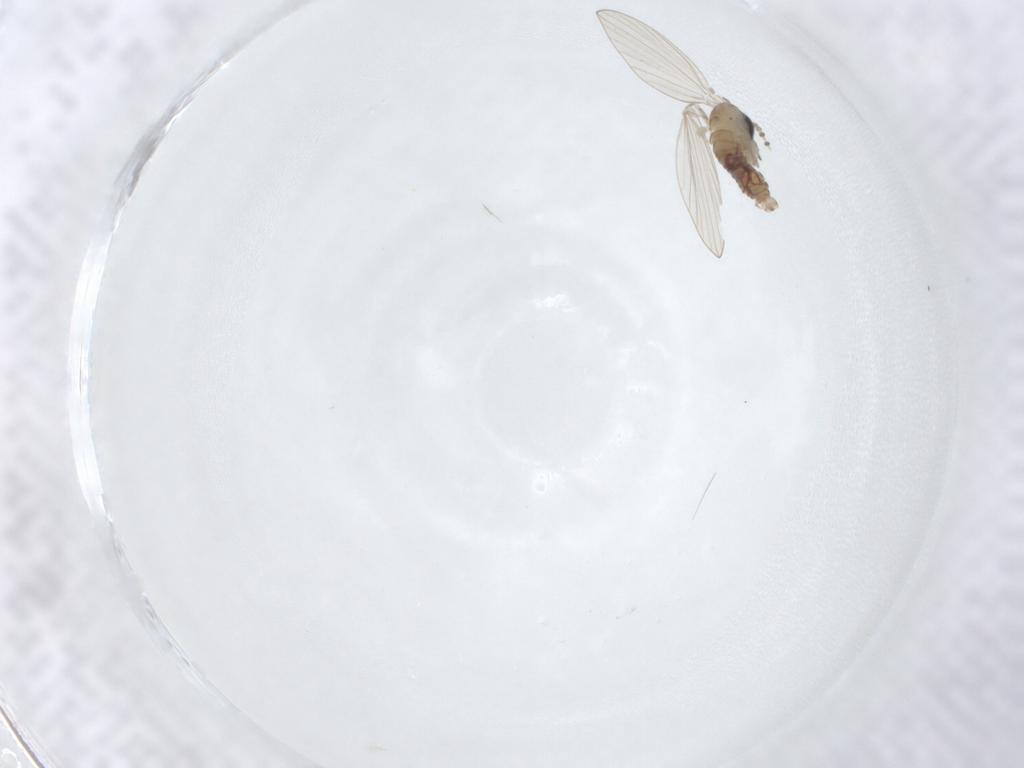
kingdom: Animalia
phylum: Arthropoda
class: Insecta
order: Diptera
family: Psychodidae
